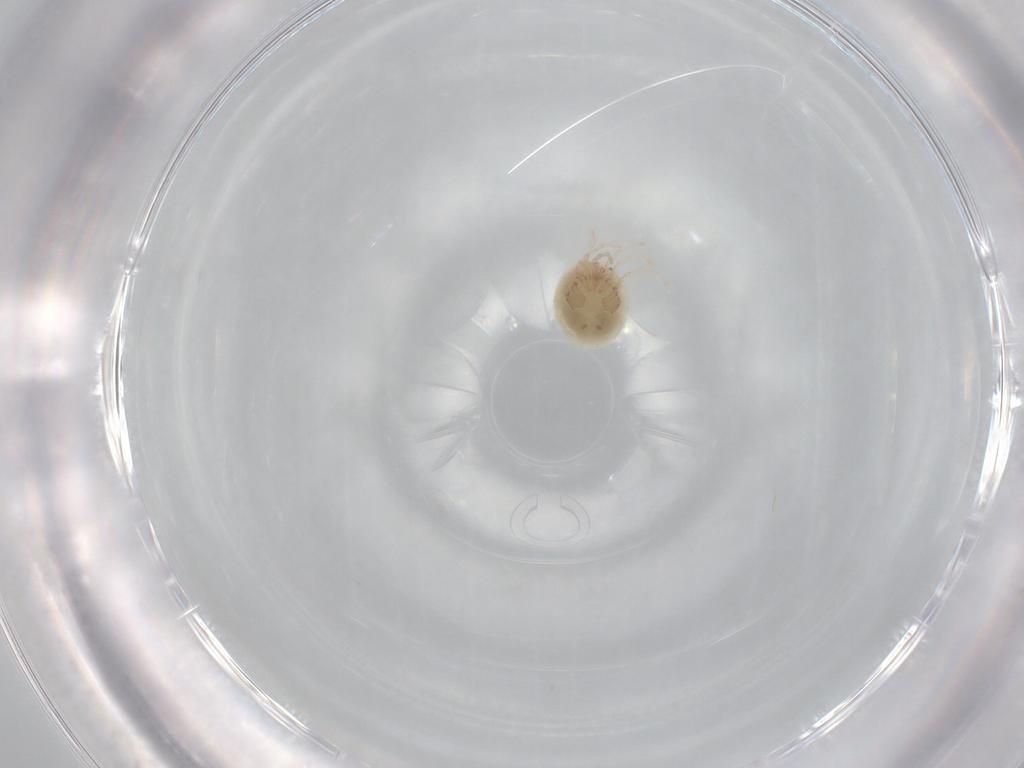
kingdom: Animalia
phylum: Arthropoda
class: Arachnida
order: Trombidiformes
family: Pionidae
